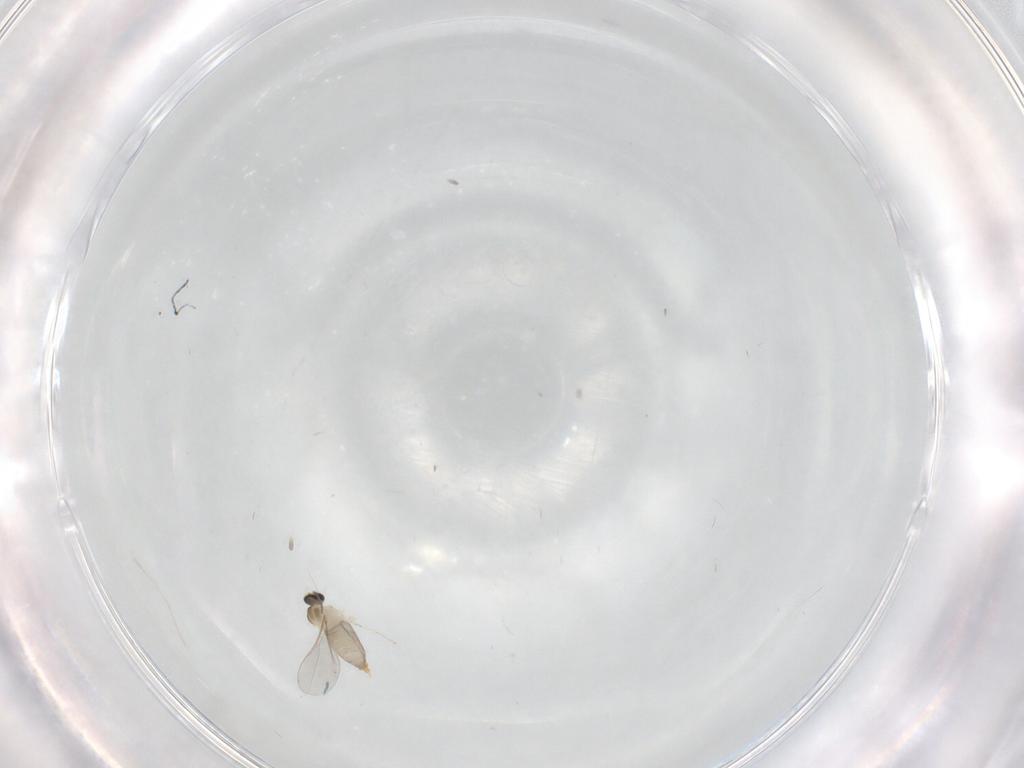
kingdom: Animalia
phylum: Arthropoda
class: Insecta
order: Diptera
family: Cecidomyiidae
